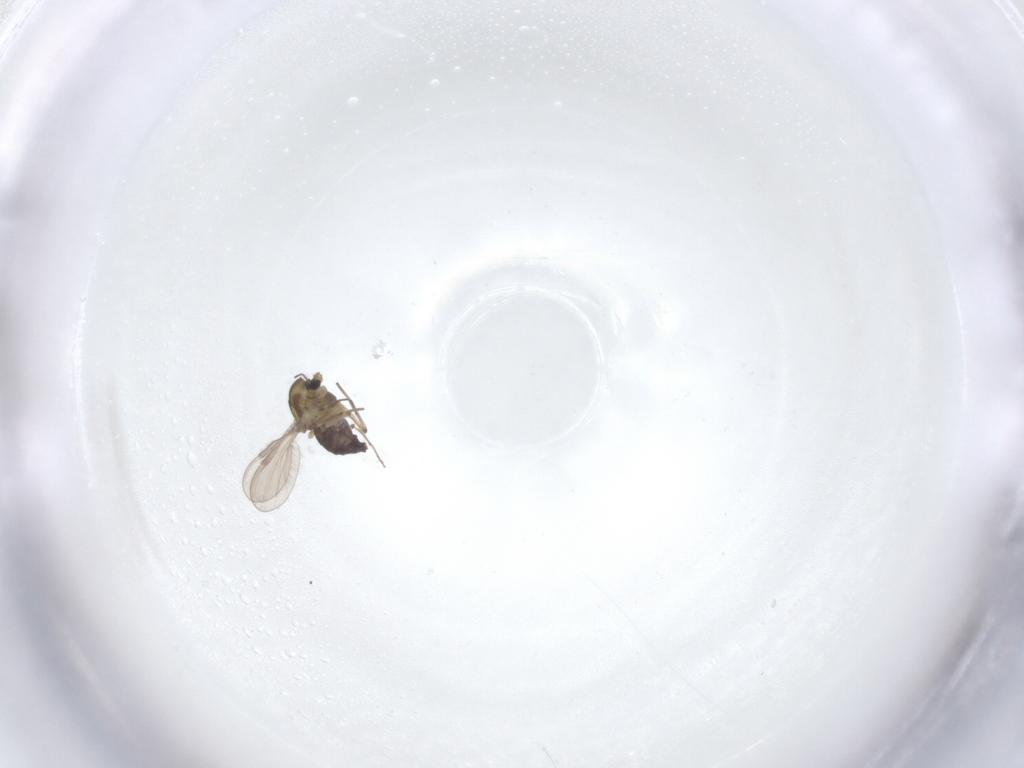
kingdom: Animalia
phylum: Arthropoda
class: Insecta
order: Diptera
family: Chironomidae
